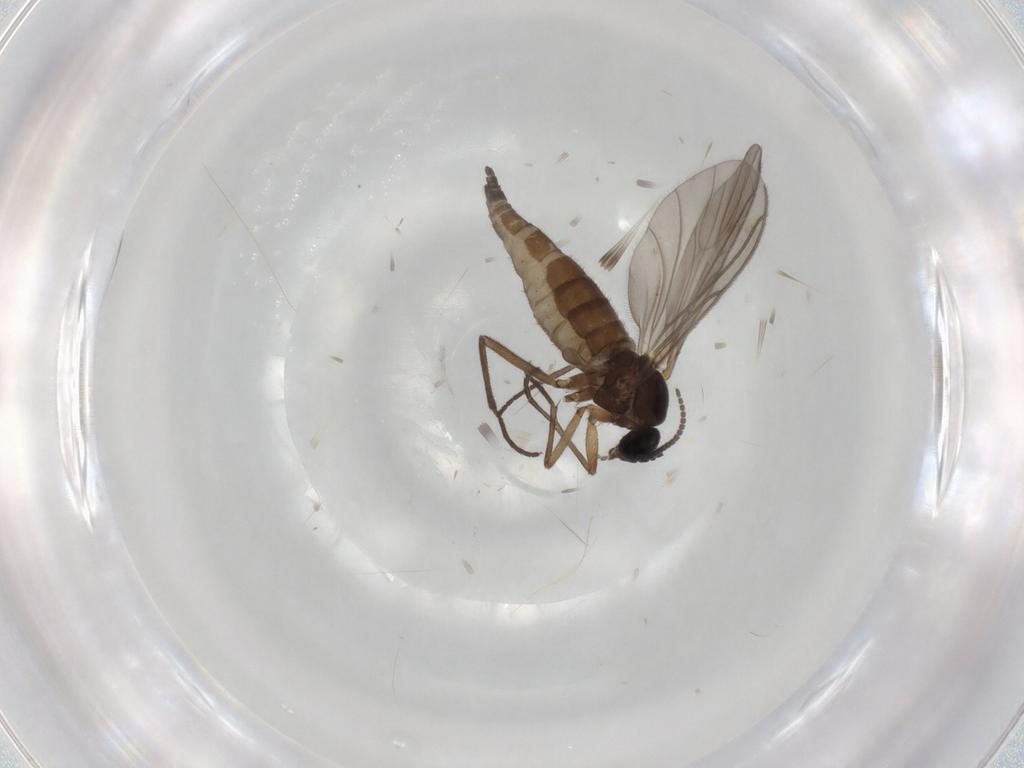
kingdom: Animalia
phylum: Arthropoda
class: Insecta
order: Diptera
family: Sciaridae
